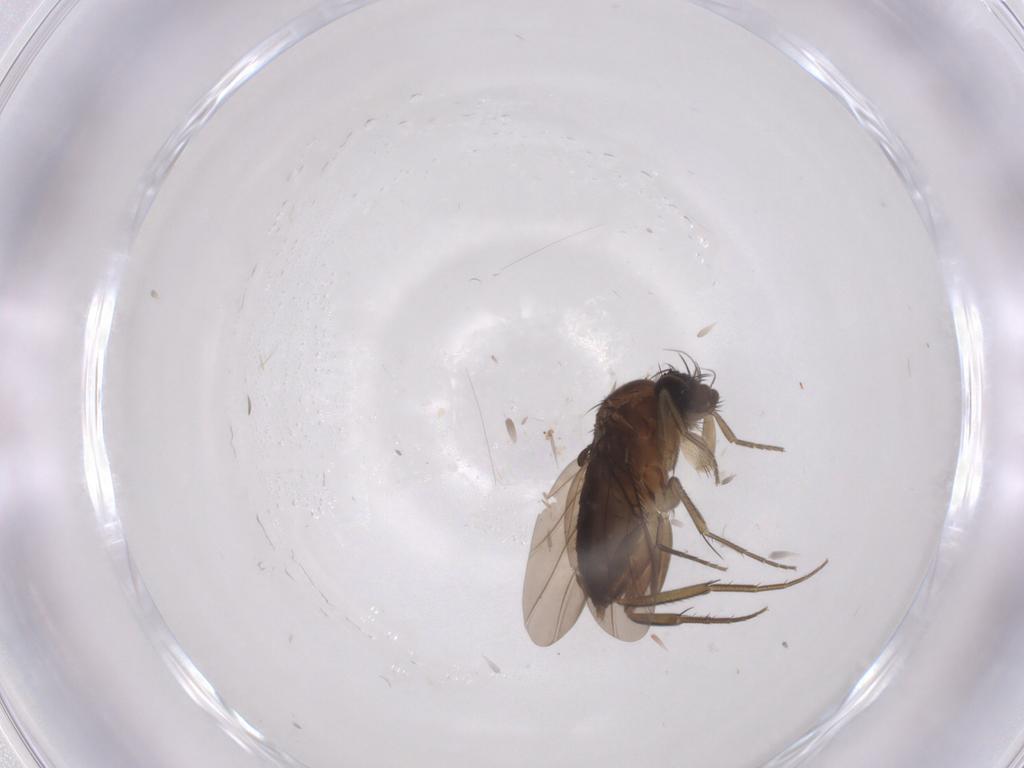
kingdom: Animalia
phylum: Arthropoda
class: Insecta
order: Diptera
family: Phoridae
